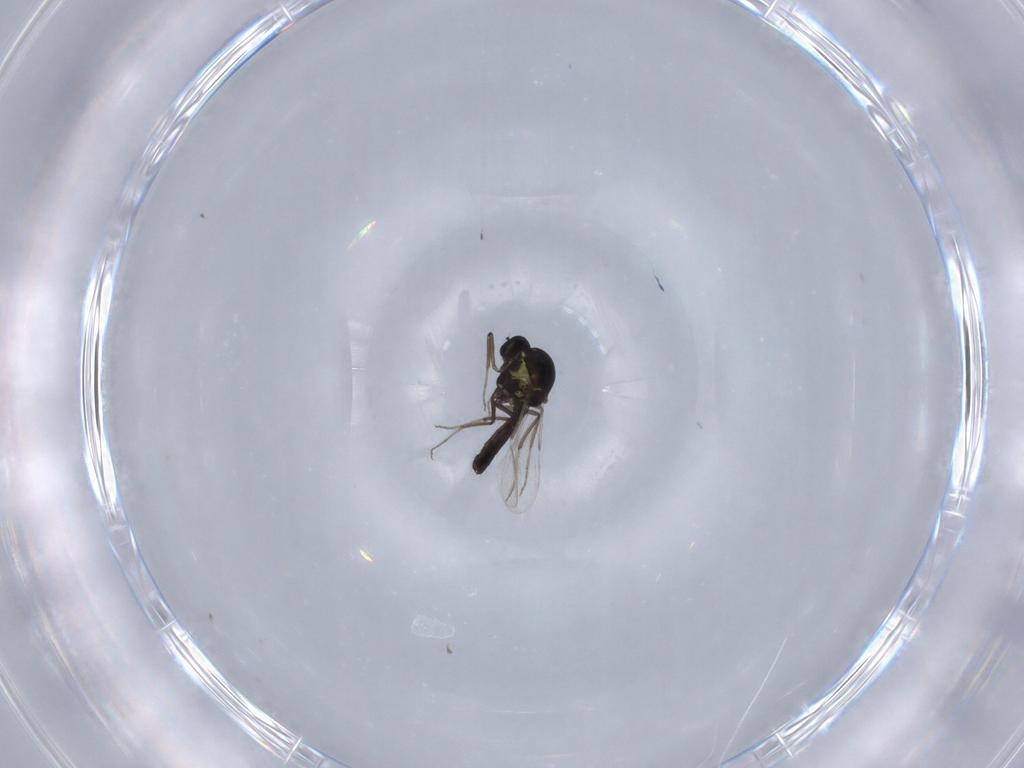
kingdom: Animalia
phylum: Arthropoda
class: Insecta
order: Diptera
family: Ceratopogonidae
